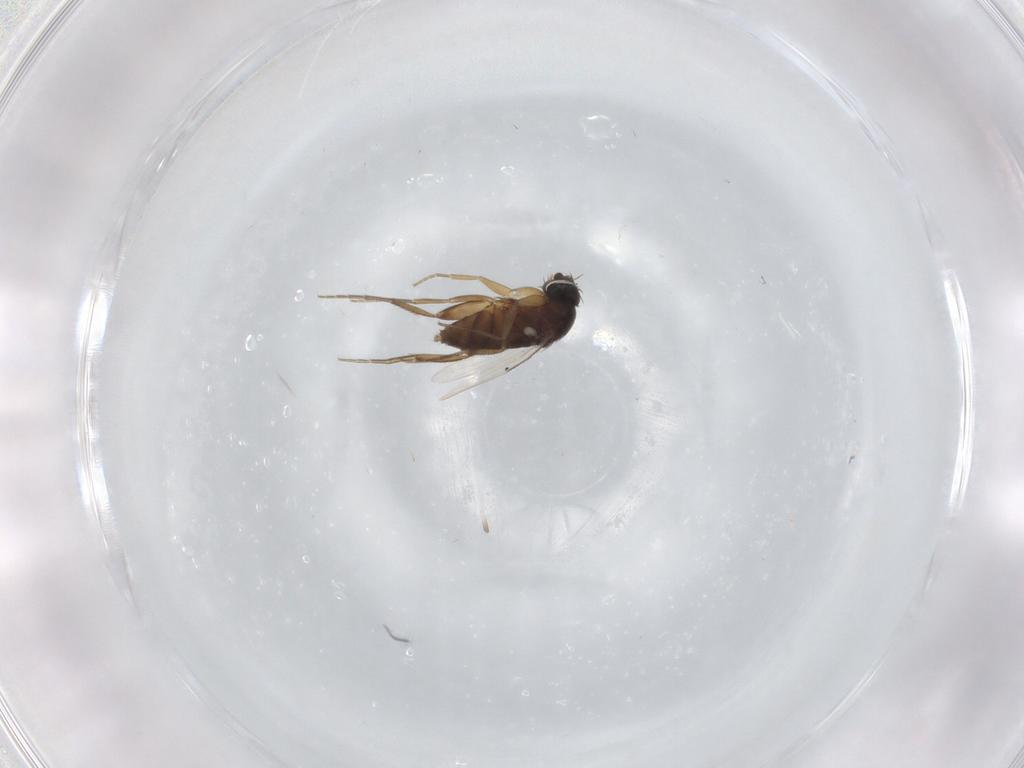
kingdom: Animalia
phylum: Arthropoda
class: Insecta
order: Diptera
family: Phoridae
